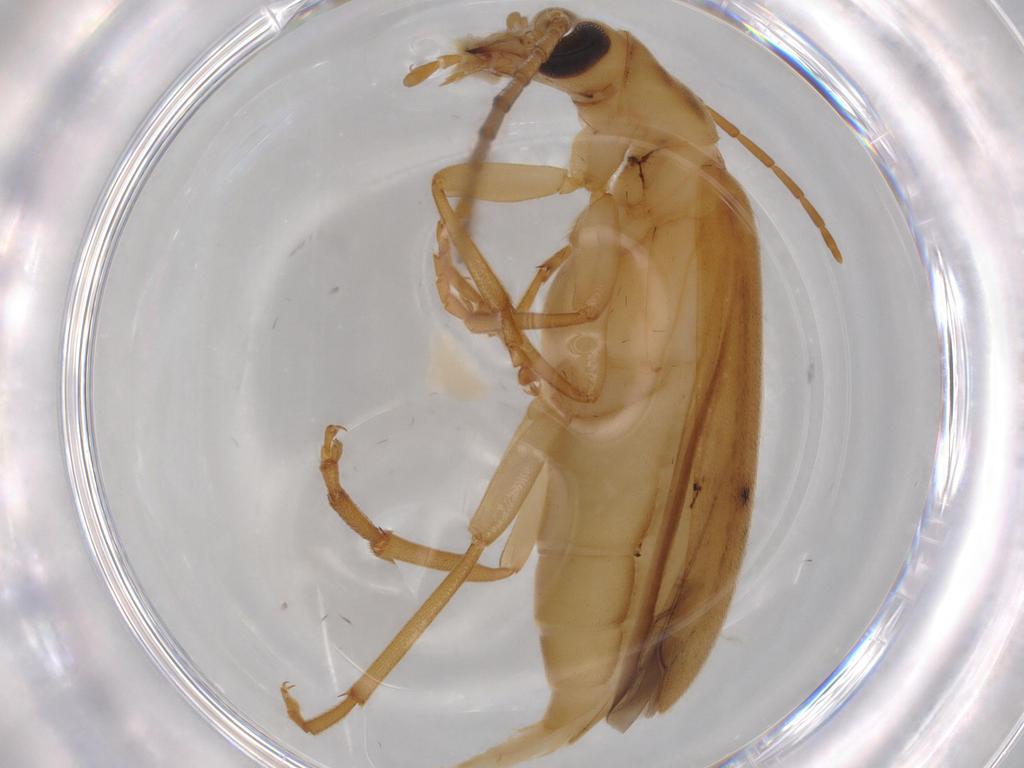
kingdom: Animalia
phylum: Arthropoda
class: Insecta
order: Coleoptera
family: Oedemeridae
